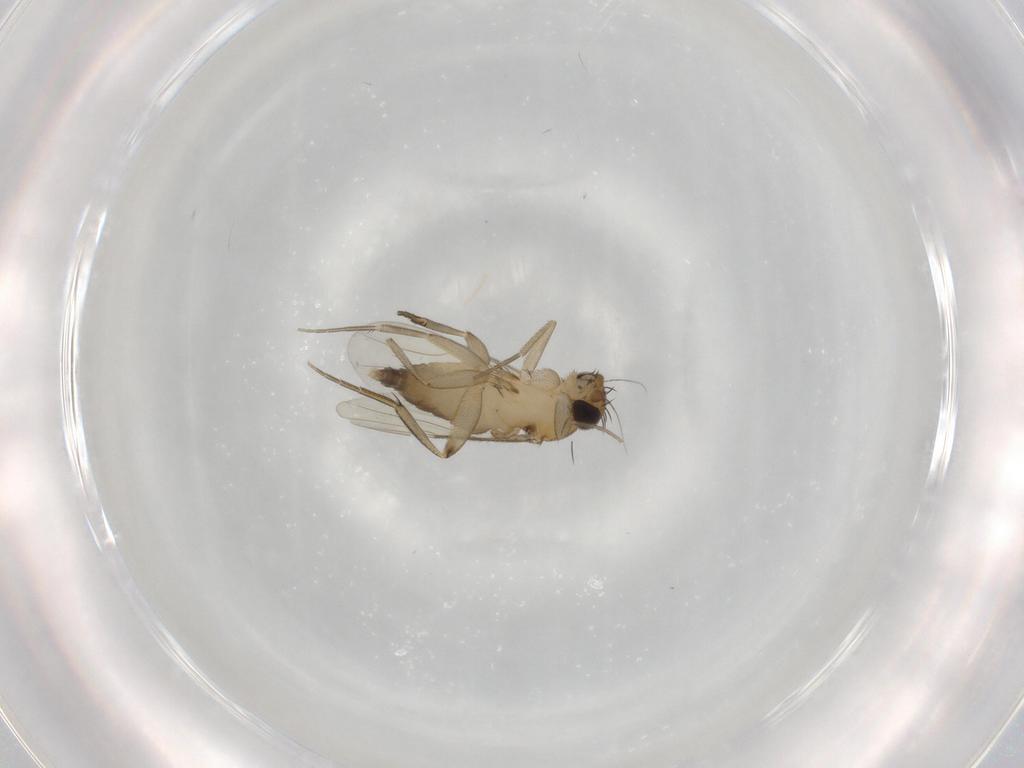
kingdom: Animalia
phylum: Arthropoda
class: Insecta
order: Diptera
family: Phoridae
